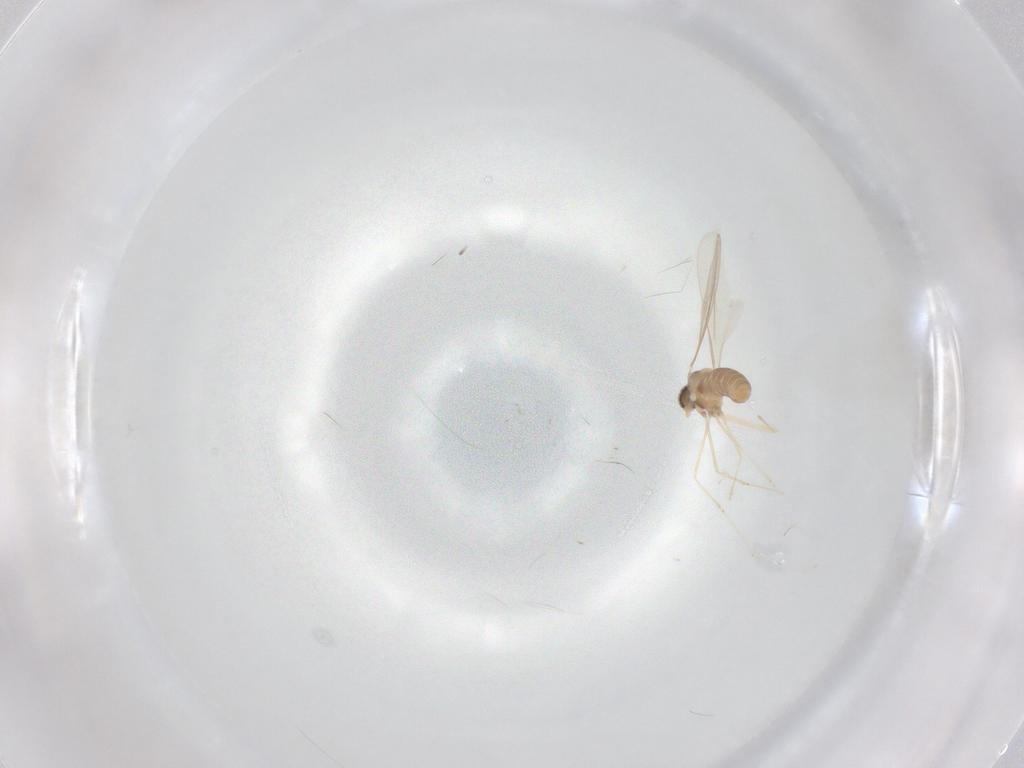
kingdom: Animalia
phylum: Arthropoda
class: Insecta
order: Diptera
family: Cecidomyiidae
